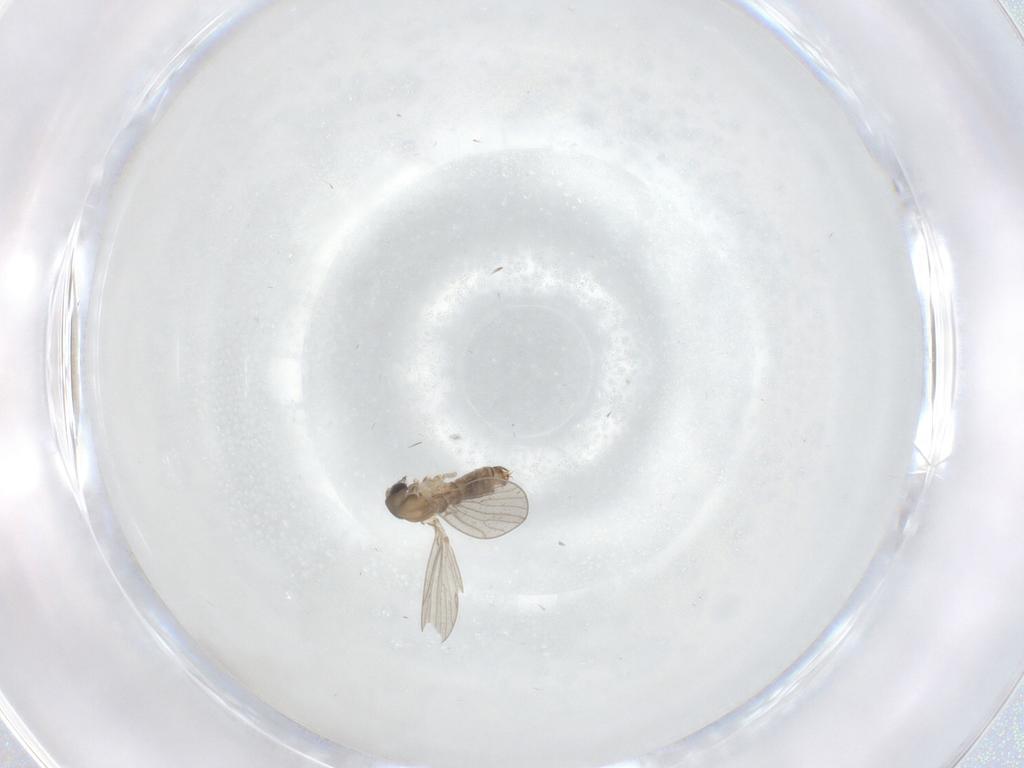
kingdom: Animalia
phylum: Arthropoda
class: Insecta
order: Diptera
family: Psychodidae
